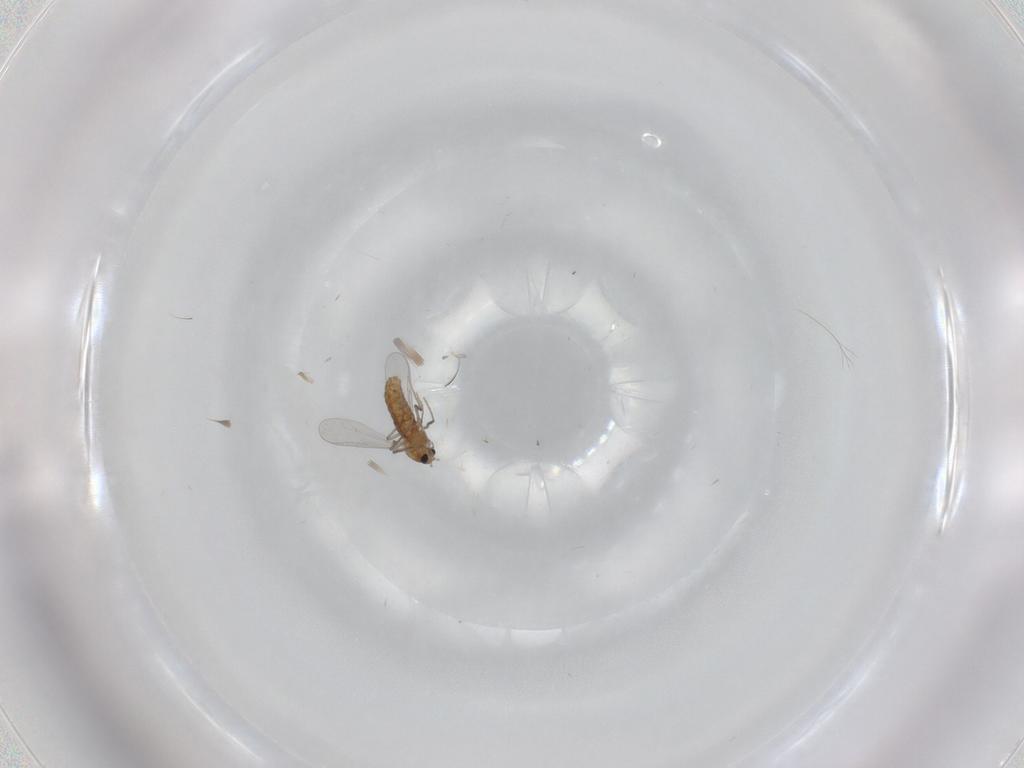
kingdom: Animalia
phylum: Arthropoda
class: Insecta
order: Diptera
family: Chironomidae
